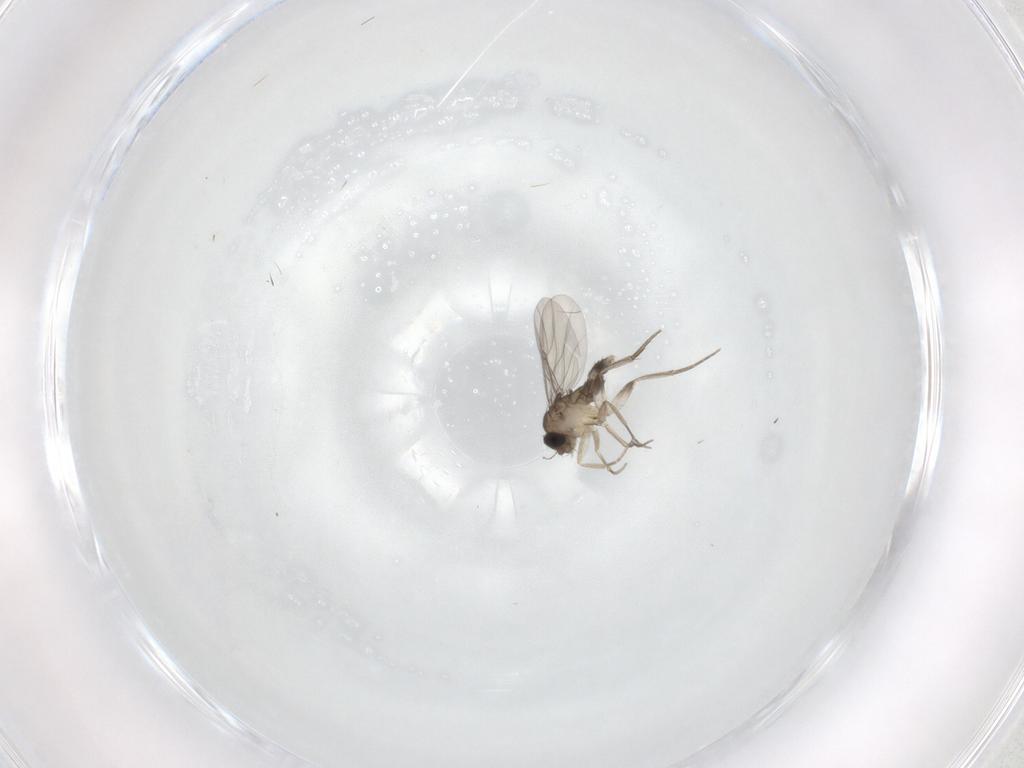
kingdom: Animalia
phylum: Arthropoda
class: Insecta
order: Diptera
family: Phoridae
